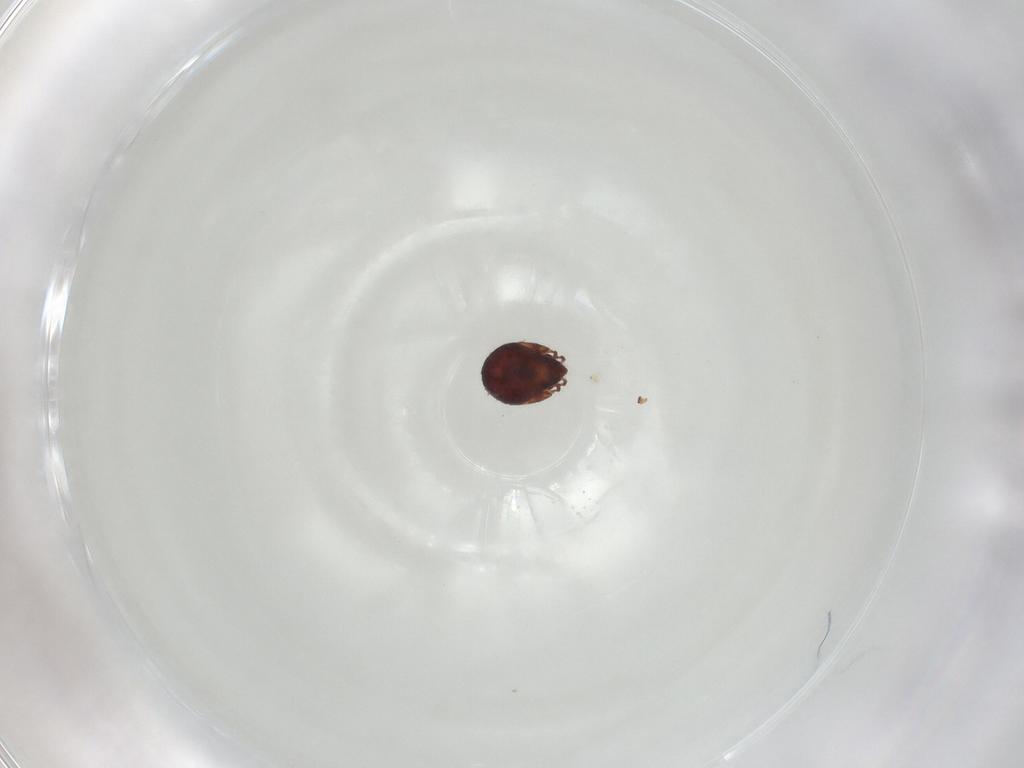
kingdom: Animalia
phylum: Arthropoda
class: Arachnida
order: Sarcoptiformes
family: Humerobatidae
